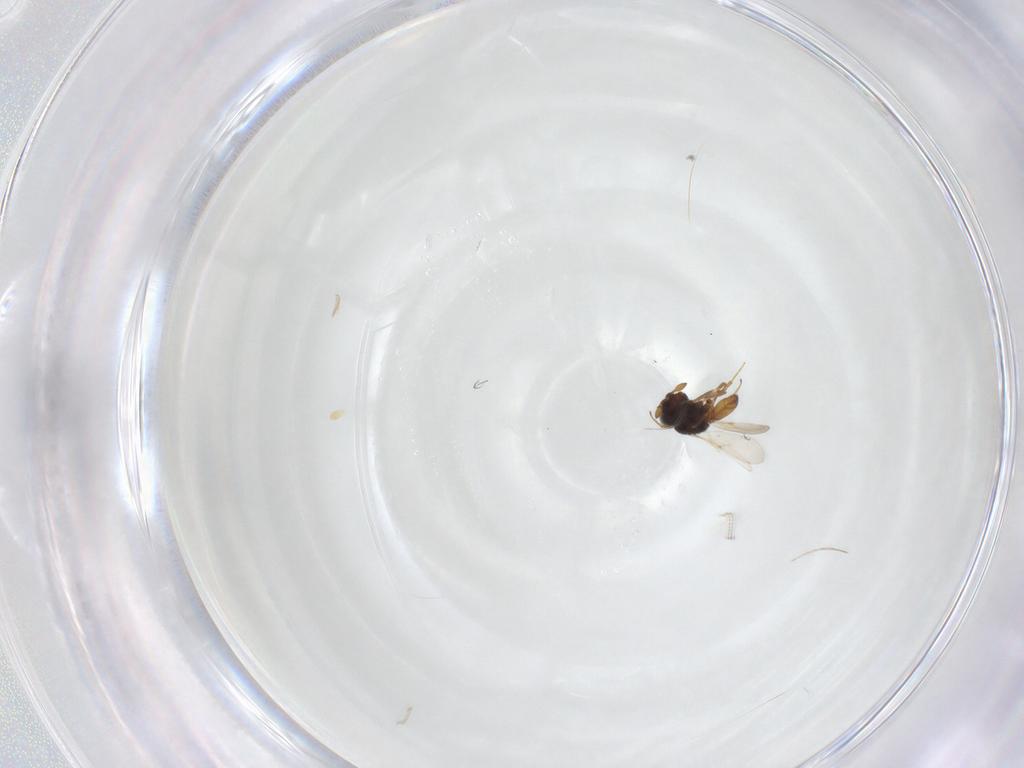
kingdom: Animalia
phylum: Arthropoda
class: Insecta
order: Hymenoptera
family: Scelionidae
